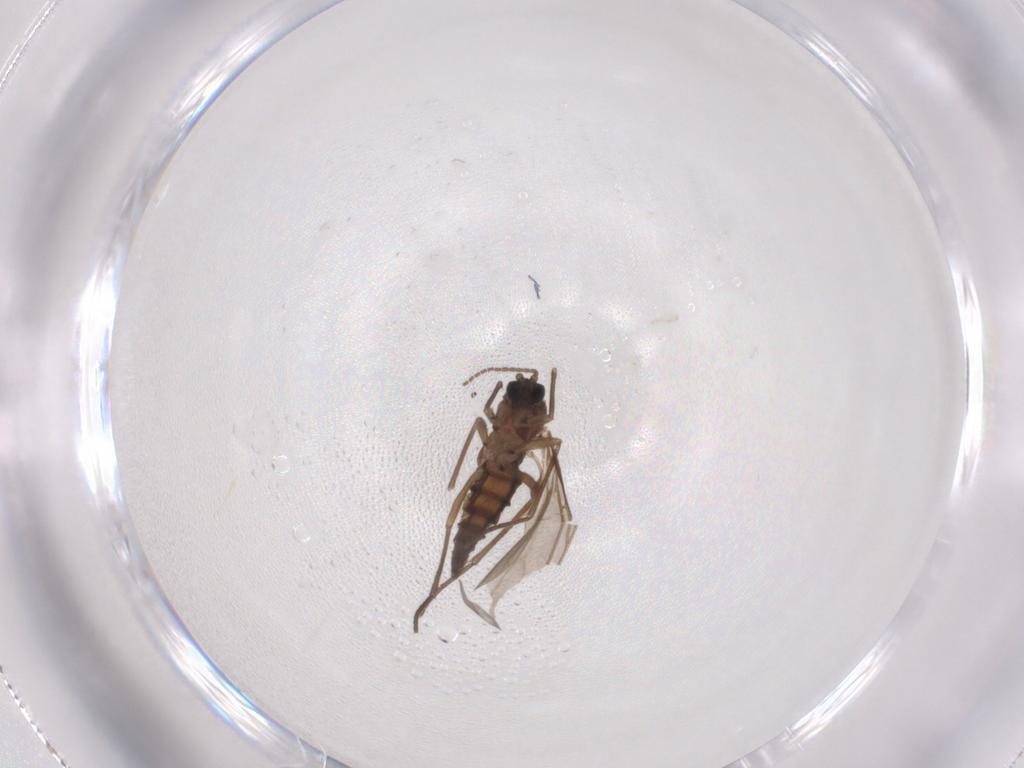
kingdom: Animalia
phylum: Arthropoda
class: Insecta
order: Diptera
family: Sciaridae
